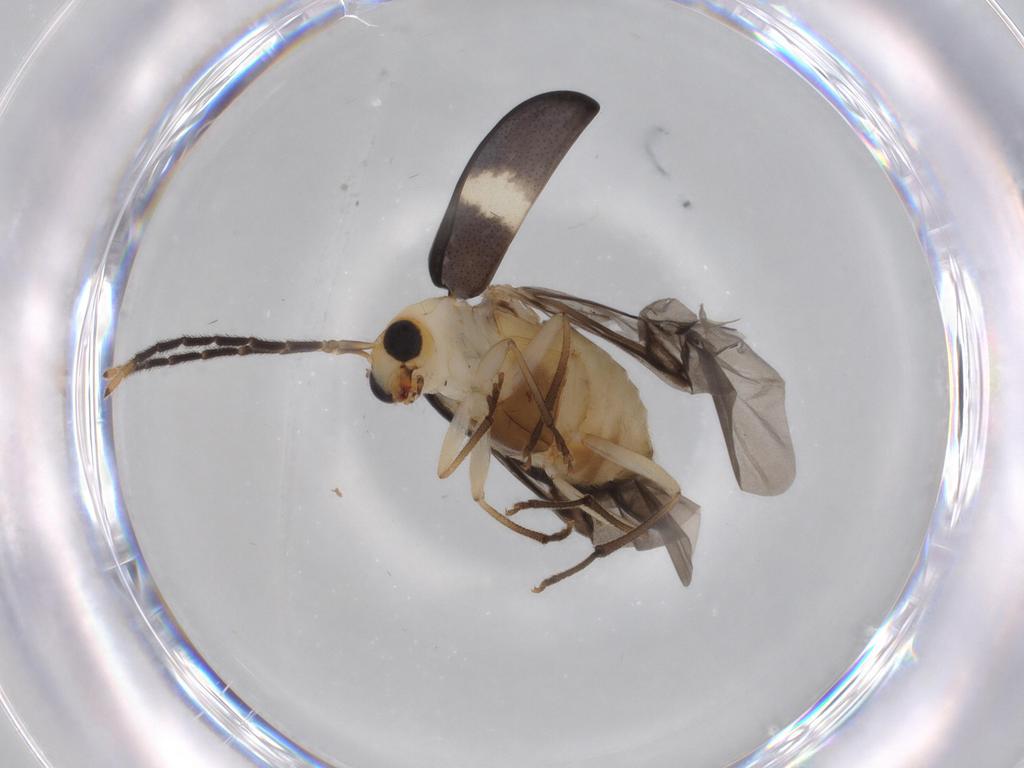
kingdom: Animalia
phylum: Arthropoda
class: Insecta
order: Coleoptera
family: Chrysomelidae
